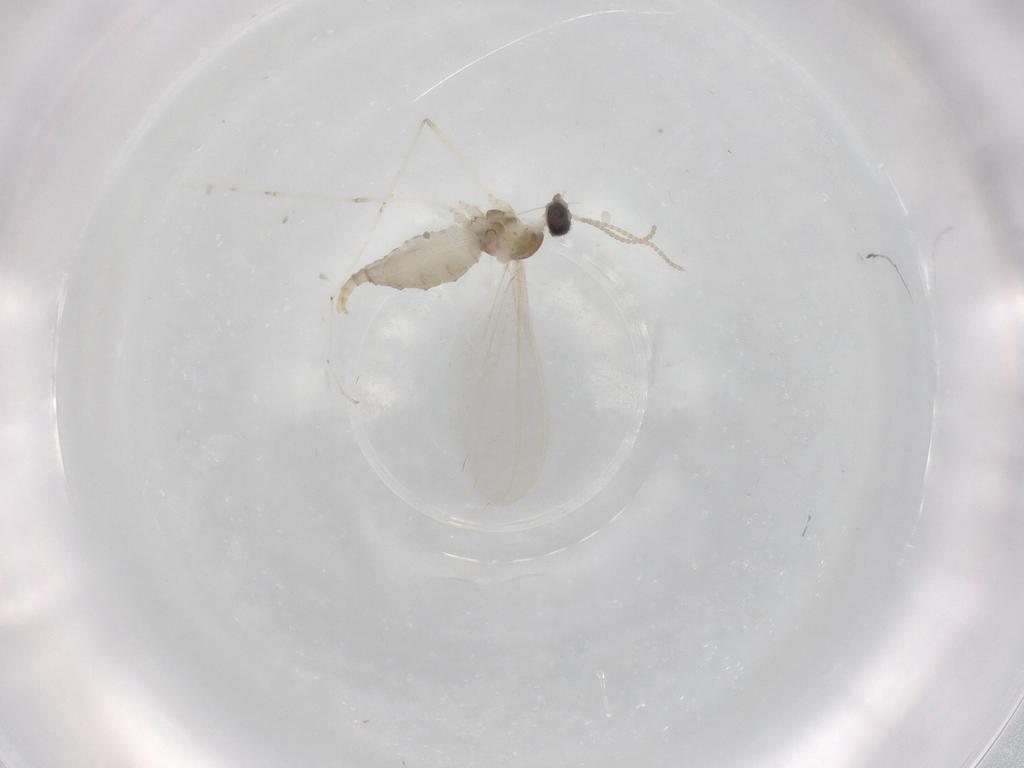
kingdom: Animalia
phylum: Arthropoda
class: Insecta
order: Diptera
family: Cecidomyiidae
